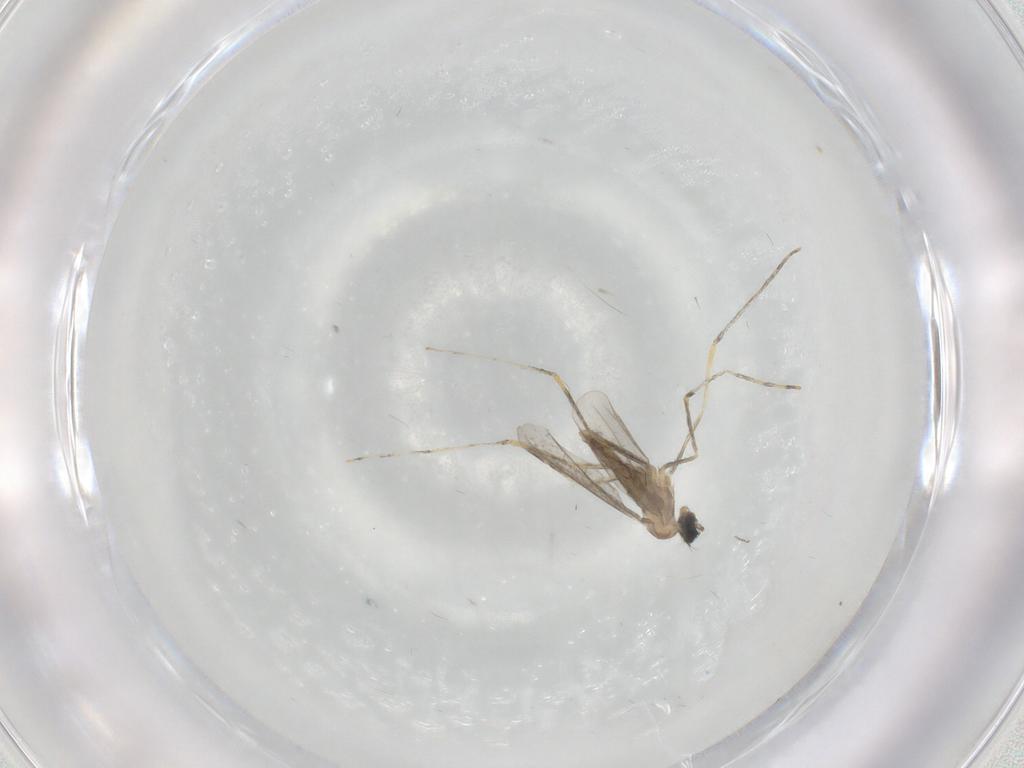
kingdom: Animalia
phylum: Arthropoda
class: Insecta
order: Diptera
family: Cecidomyiidae
